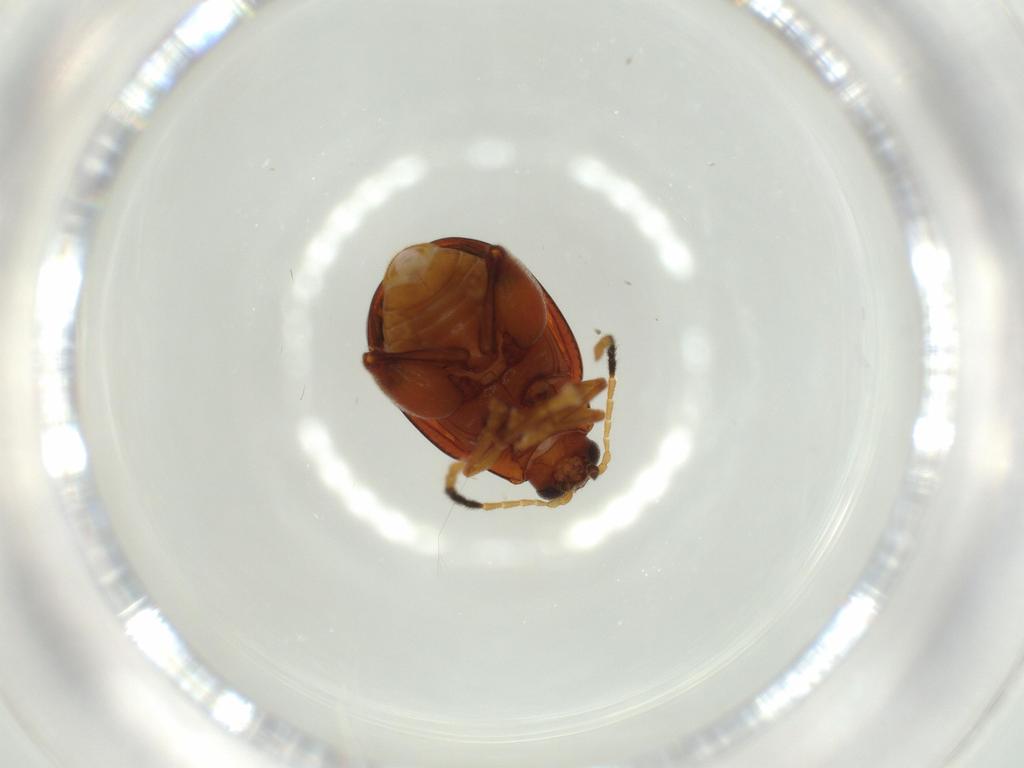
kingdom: Animalia
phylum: Arthropoda
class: Insecta
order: Coleoptera
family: Chrysomelidae
